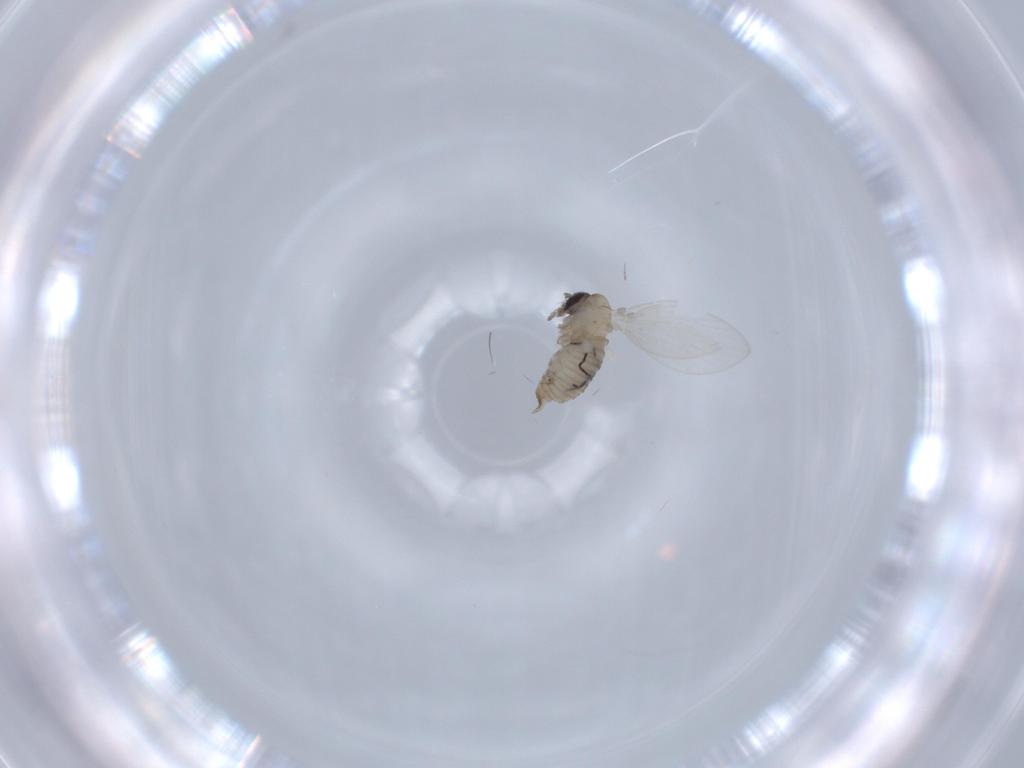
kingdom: Animalia
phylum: Arthropoda
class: Insecta
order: Diptera
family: Psychodidae
